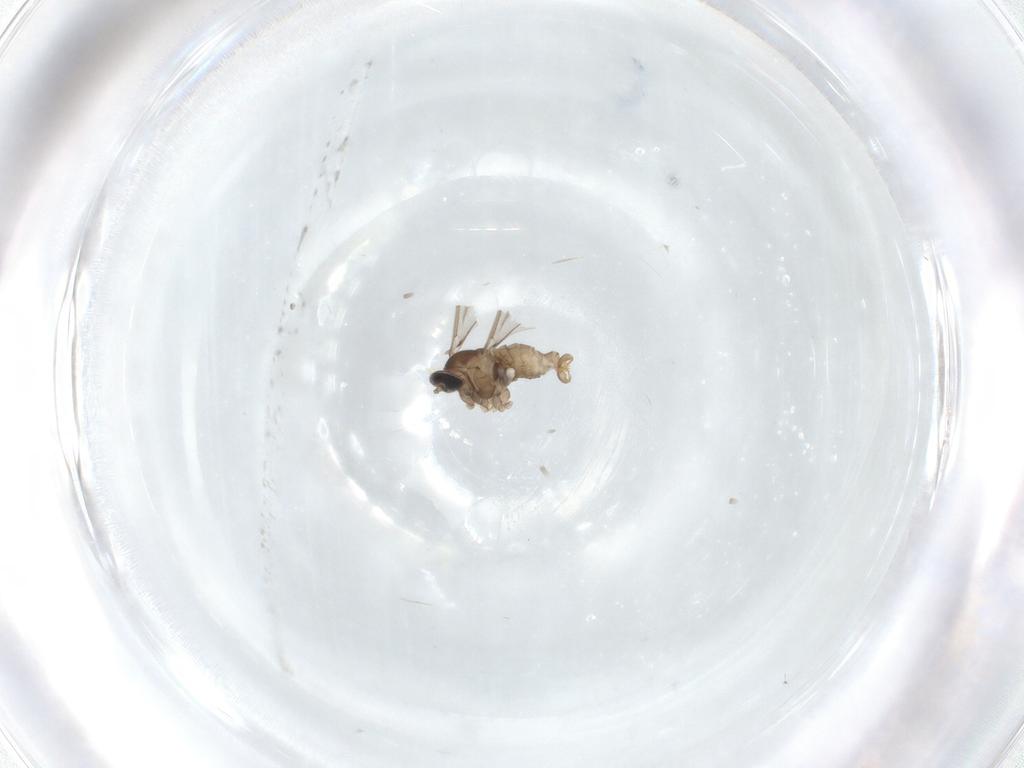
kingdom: Animalia
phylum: Arthropoda
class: Insecta
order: Diptera
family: Cecidomyiidae
